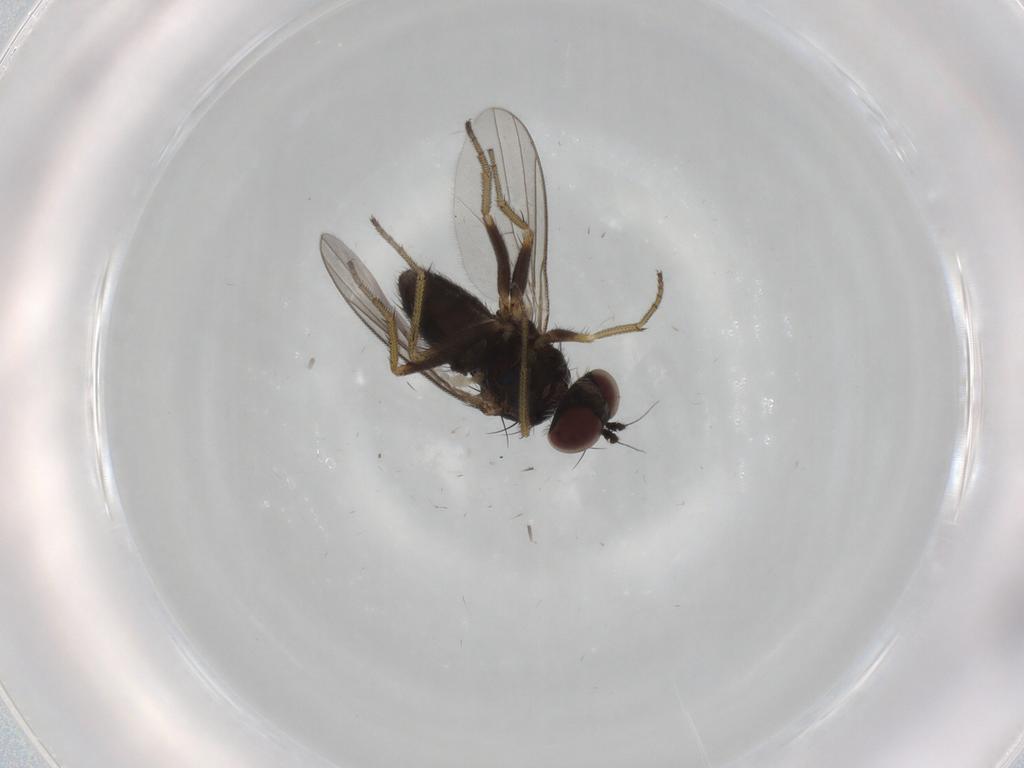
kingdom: Animalia
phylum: Arthropoda
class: Insecta
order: Diptera
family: Dolichopodidae
